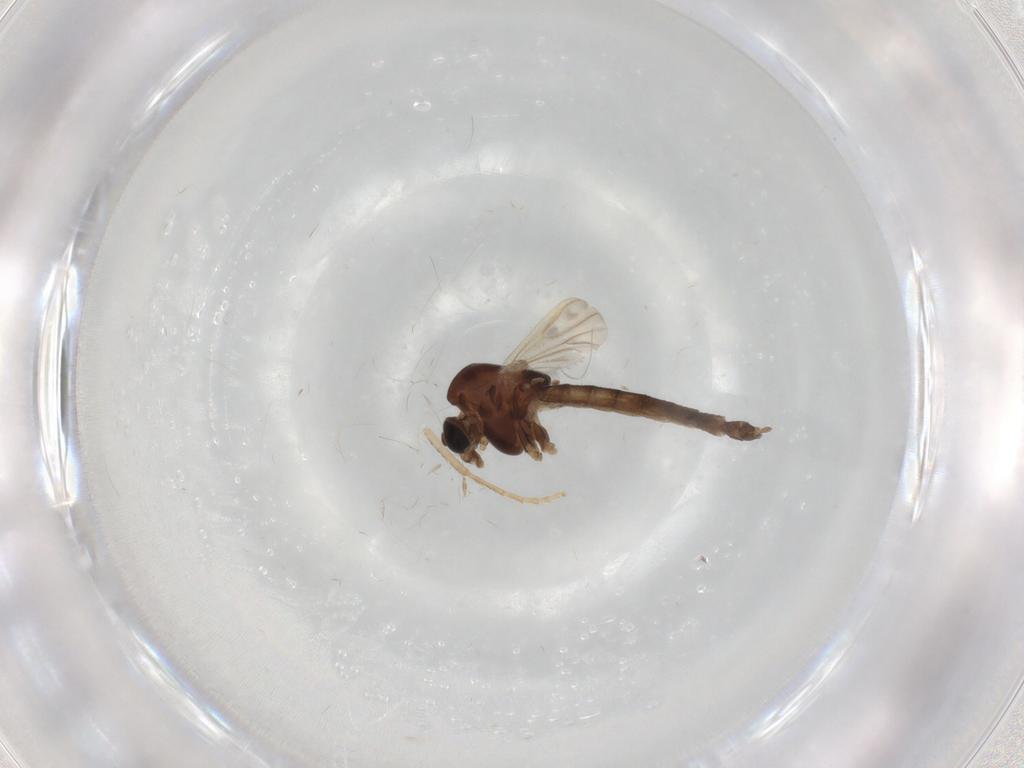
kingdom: Animalia
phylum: Arthropoda
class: Insecta
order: Diptera
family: Chironomidae
